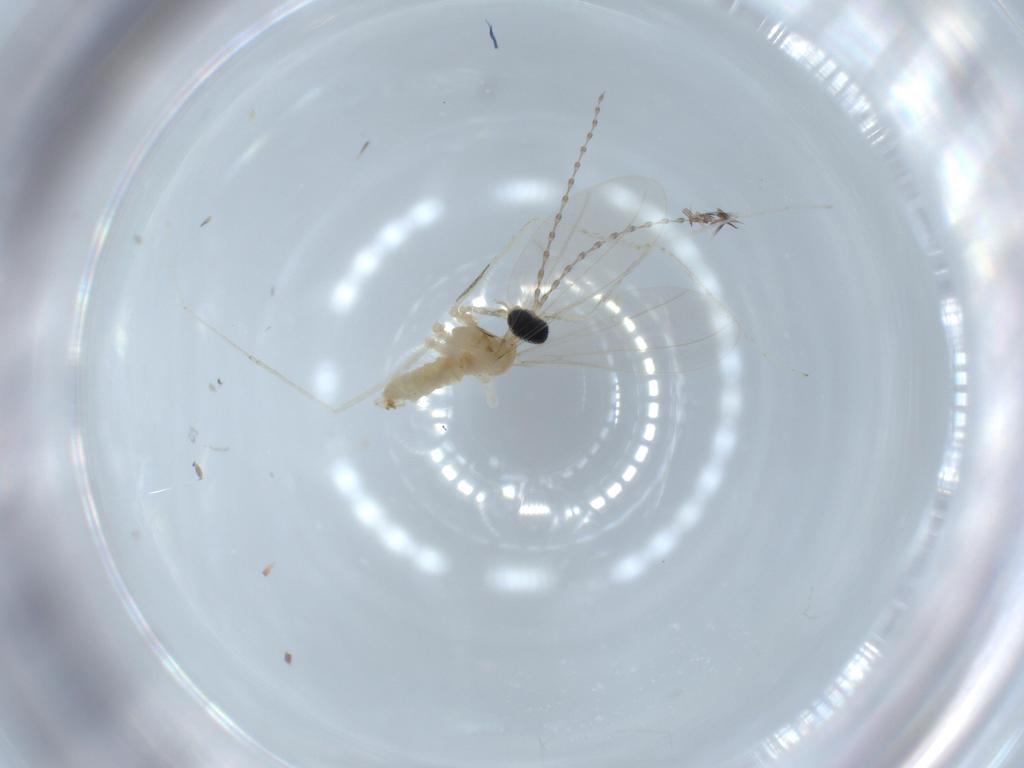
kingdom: Animalia
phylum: Arthropoda
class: Insecta
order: Diptera
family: Cecidomyiidae
